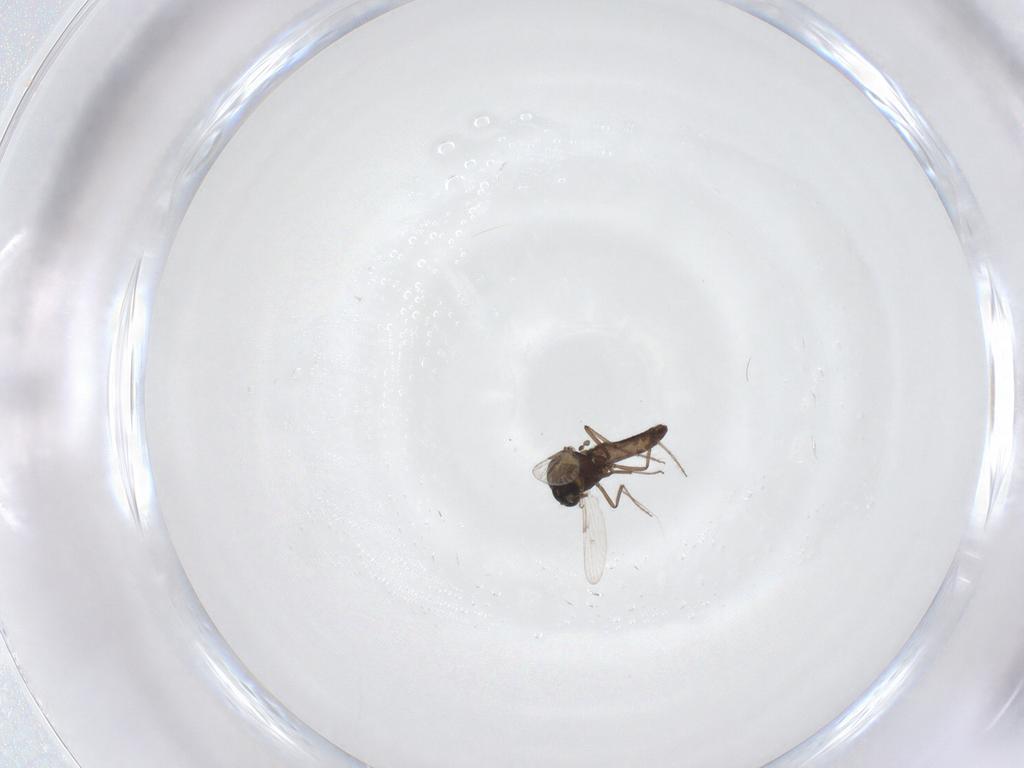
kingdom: Animalia
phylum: Arthropoda
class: Insecta
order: Diptera
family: Ceratopogonidae
